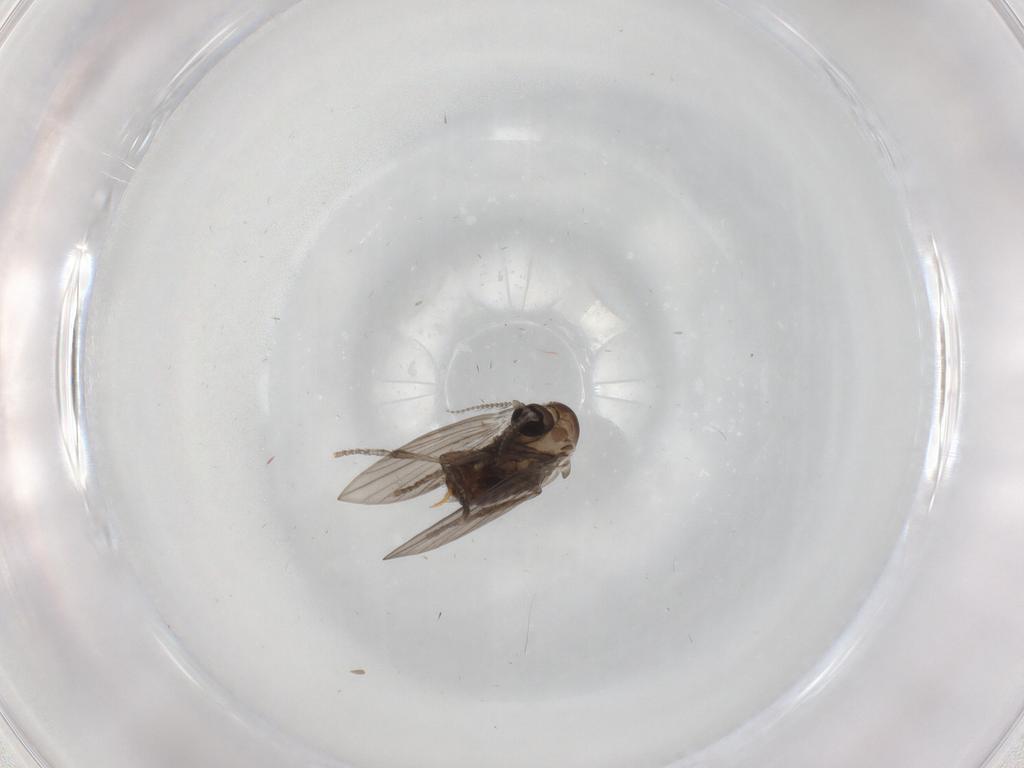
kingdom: Animalia
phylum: Arthropoda
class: Insecta
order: Diptera
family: Psychodidae
